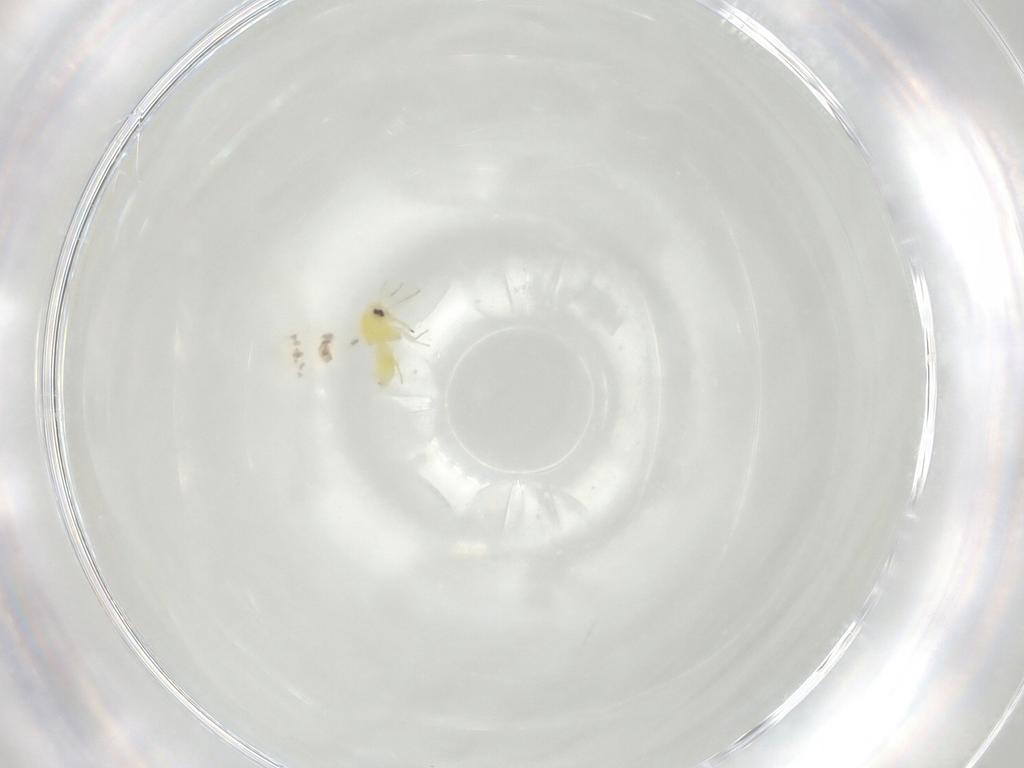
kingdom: Animalia
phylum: Arthropoda
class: Insecta
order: Hemiptera
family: Aleyrodidae
